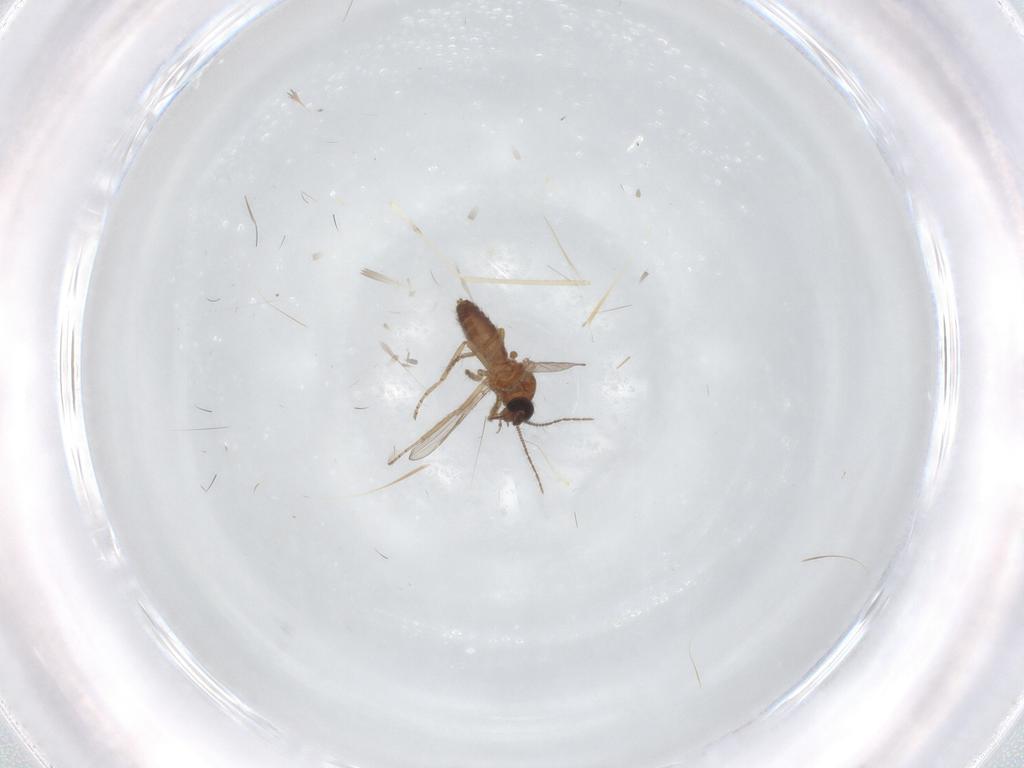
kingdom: Animalia
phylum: Arthropoda
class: Insecta
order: Diptera
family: Ceratopogonidae
